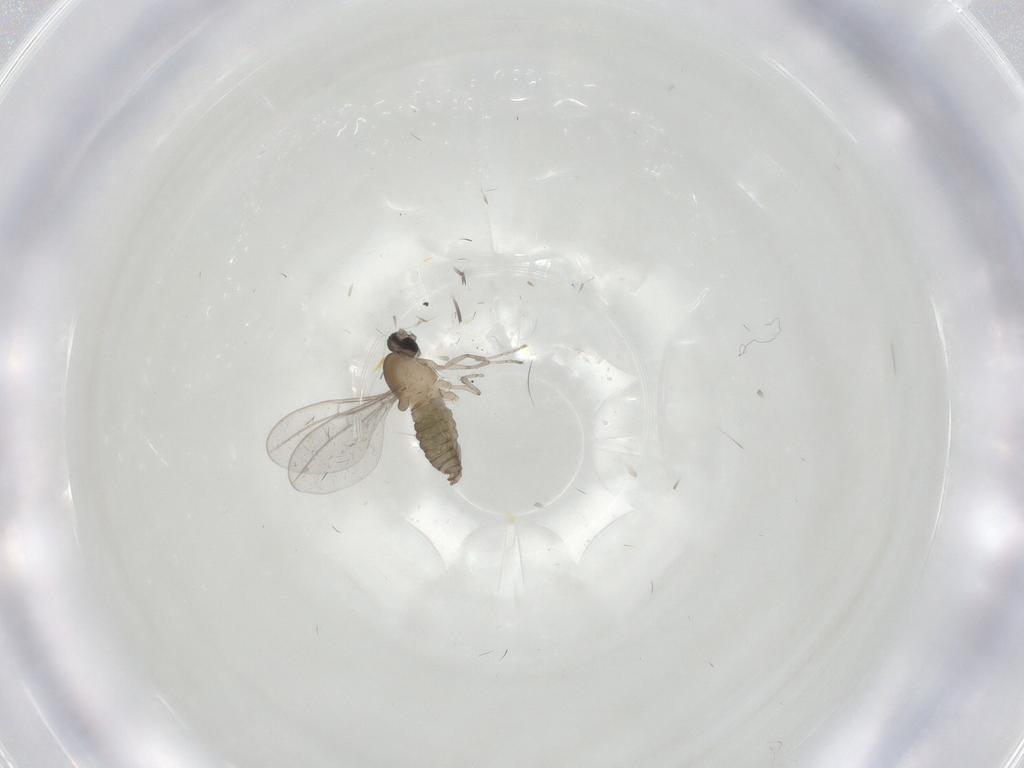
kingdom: Animalia
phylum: Arthropoda
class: Insecta
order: Diptera
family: Cecidomyiidae
